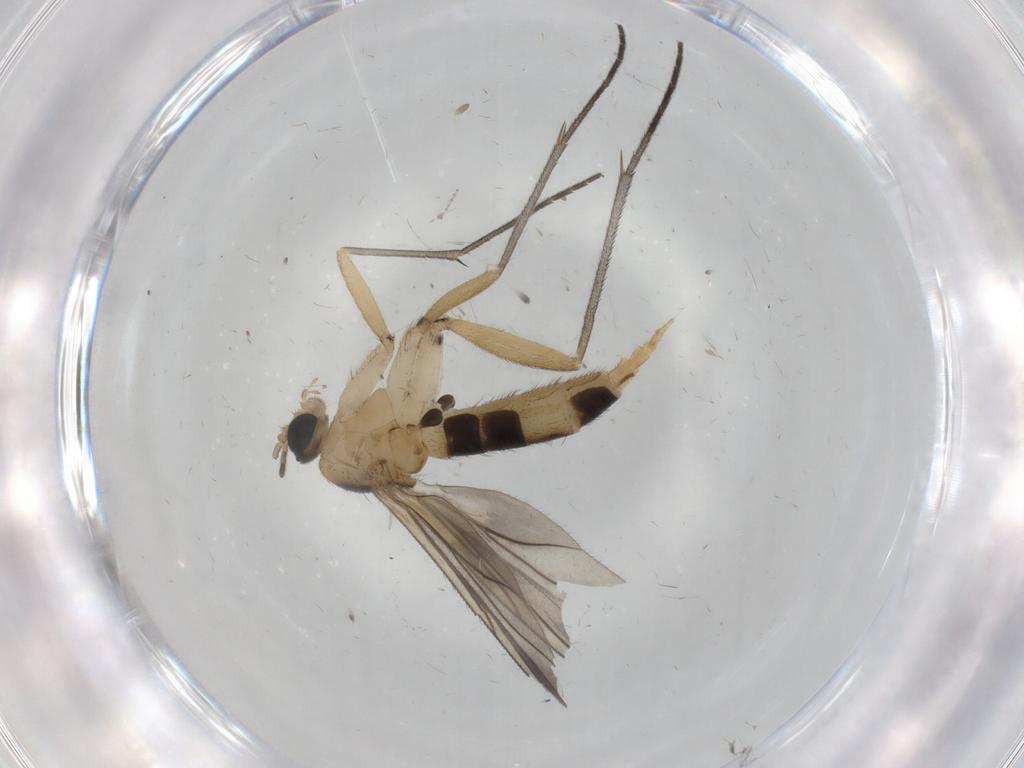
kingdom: Animalia
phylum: Arthropoda
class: Insecta
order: Diptera
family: Sciaridae
